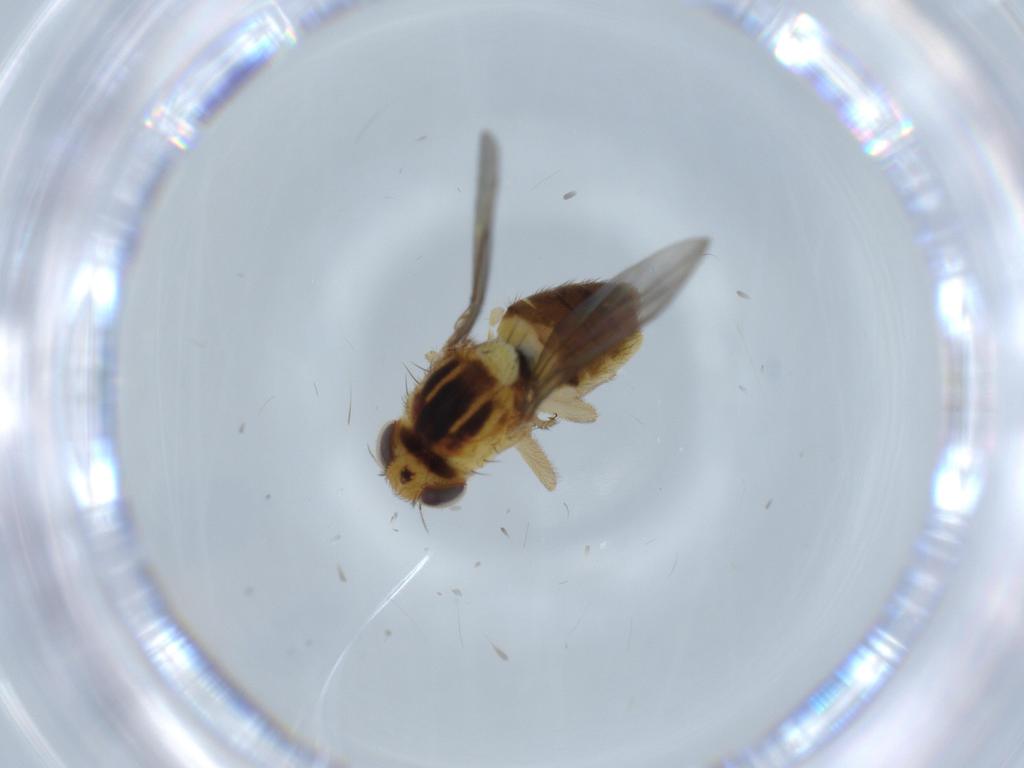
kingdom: Animalia
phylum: Arthropoda
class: Insecta
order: Diptera
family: Chloropidae
